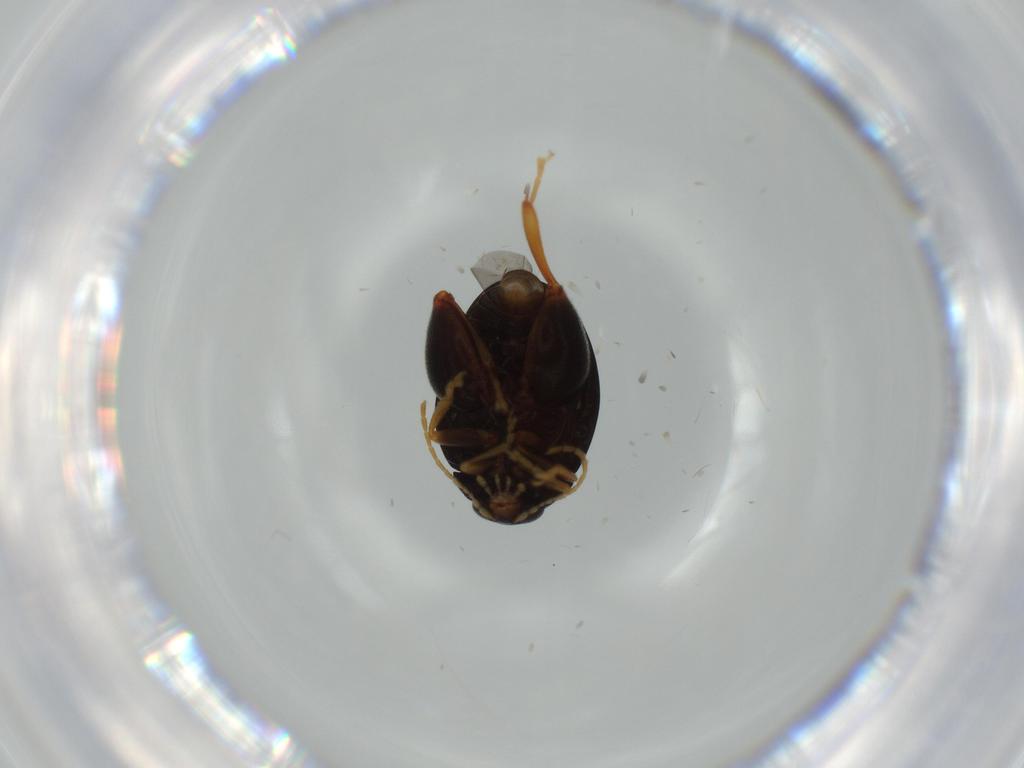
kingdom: Animalia
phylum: Arthropoda
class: Insecta
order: Coleoptera
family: Chrysomelidae
